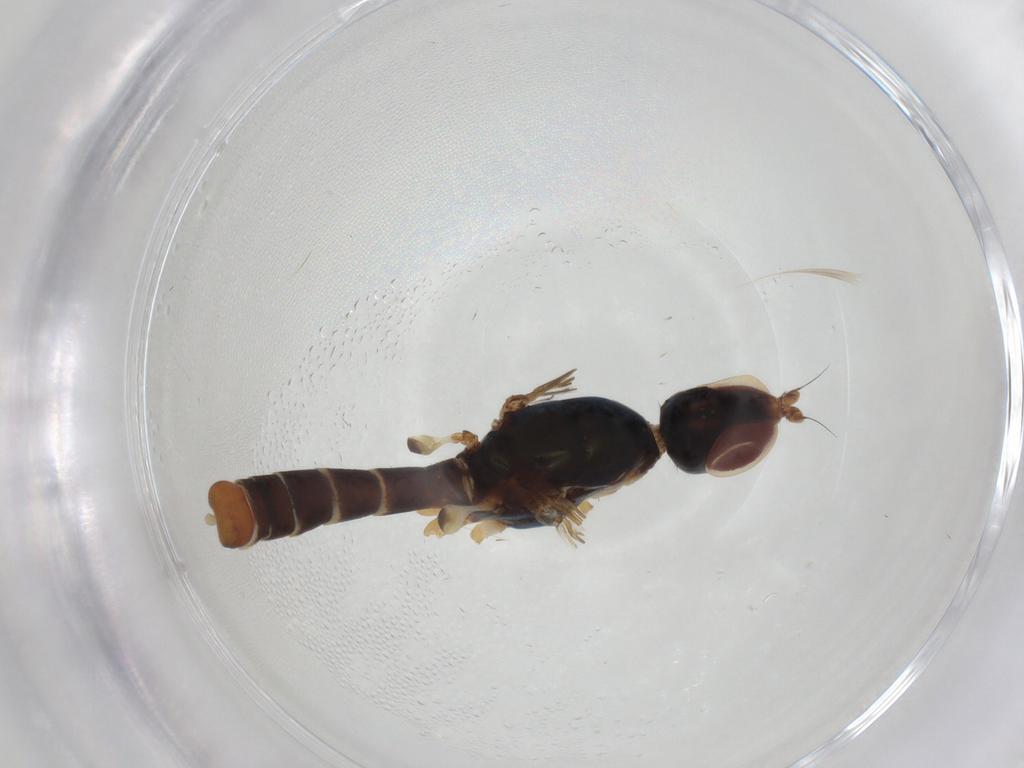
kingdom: Animalia
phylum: Arthropoda
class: Insecta
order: Diptera
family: Micropezidae
